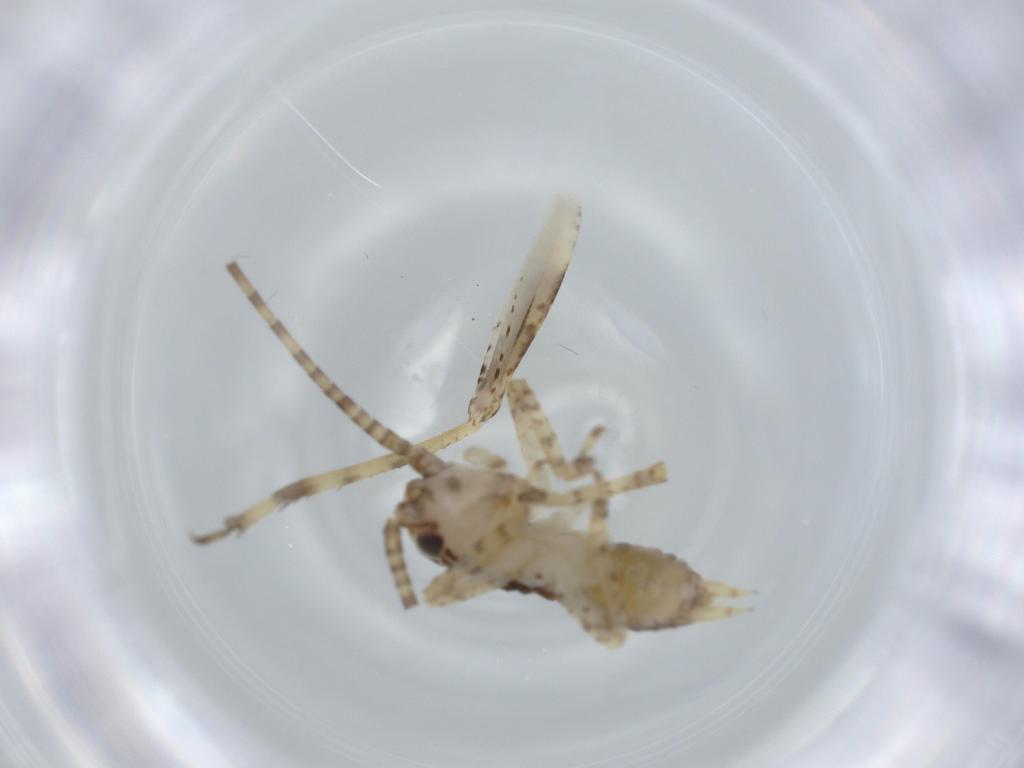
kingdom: Animalia
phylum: Arthropoda
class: Insecta
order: Orthoptera
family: Gryllidae
